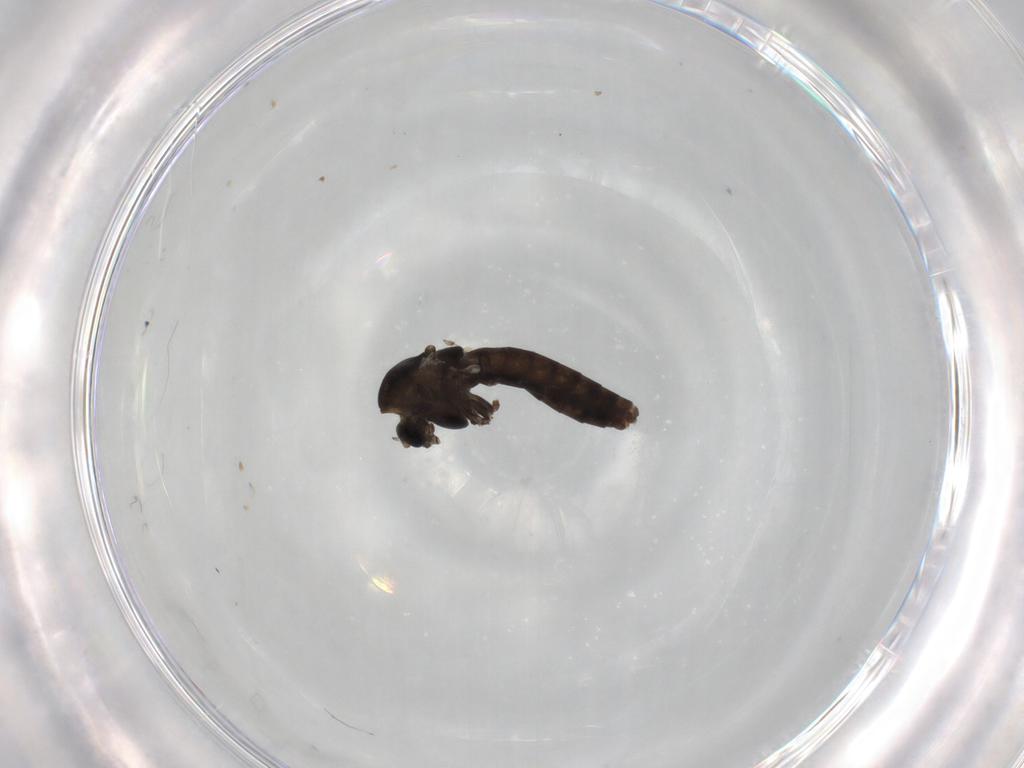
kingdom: Animalia
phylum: Arthropoda
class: Insecta
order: Diptera
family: Chironomidae
